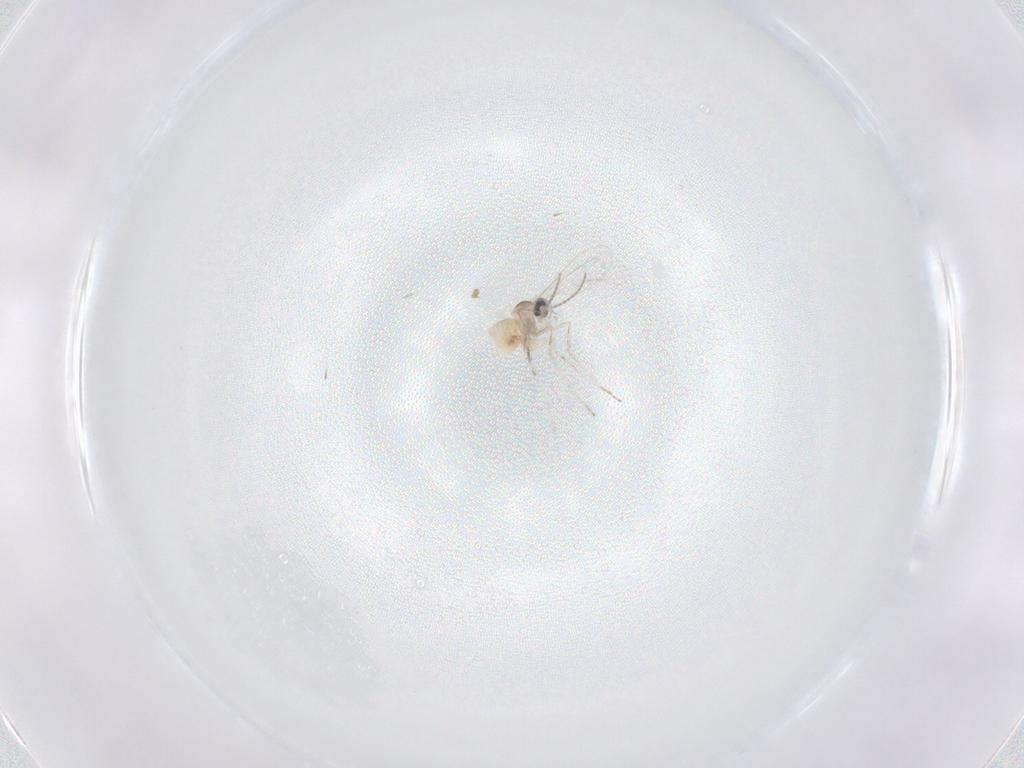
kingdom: Animalia
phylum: Arthropoda
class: Insecta
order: Diptera
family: Cecidomyiidae
